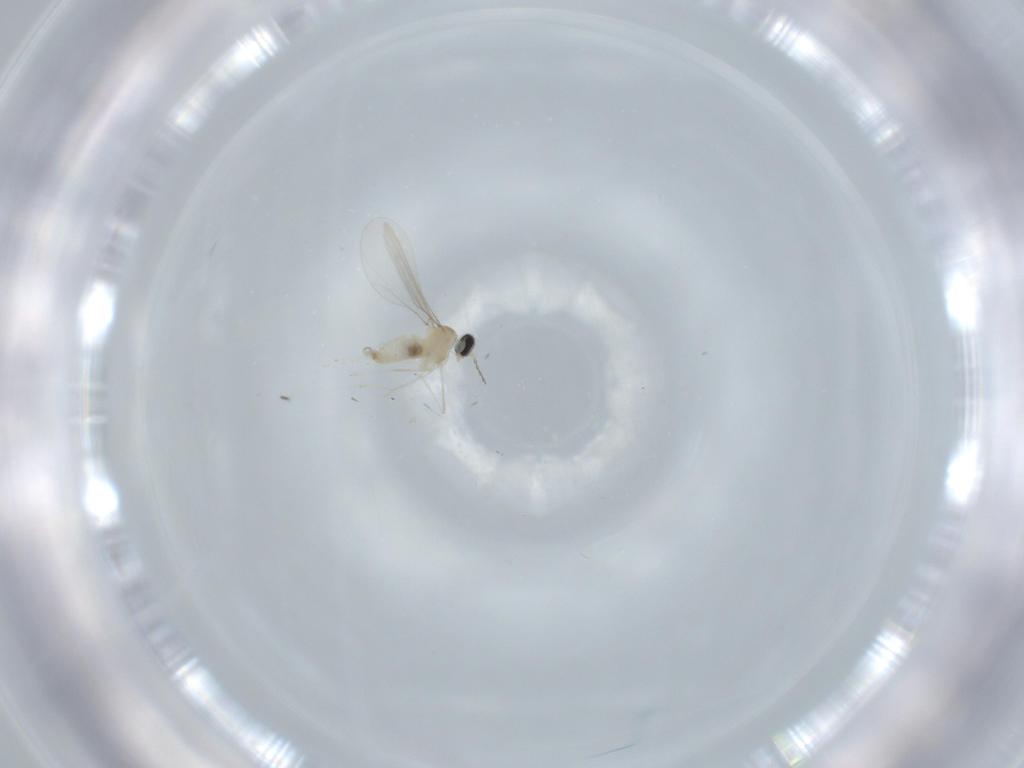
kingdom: Animalia
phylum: Arthropoda
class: Insecta
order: Diptera
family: Cecidomyiidae
